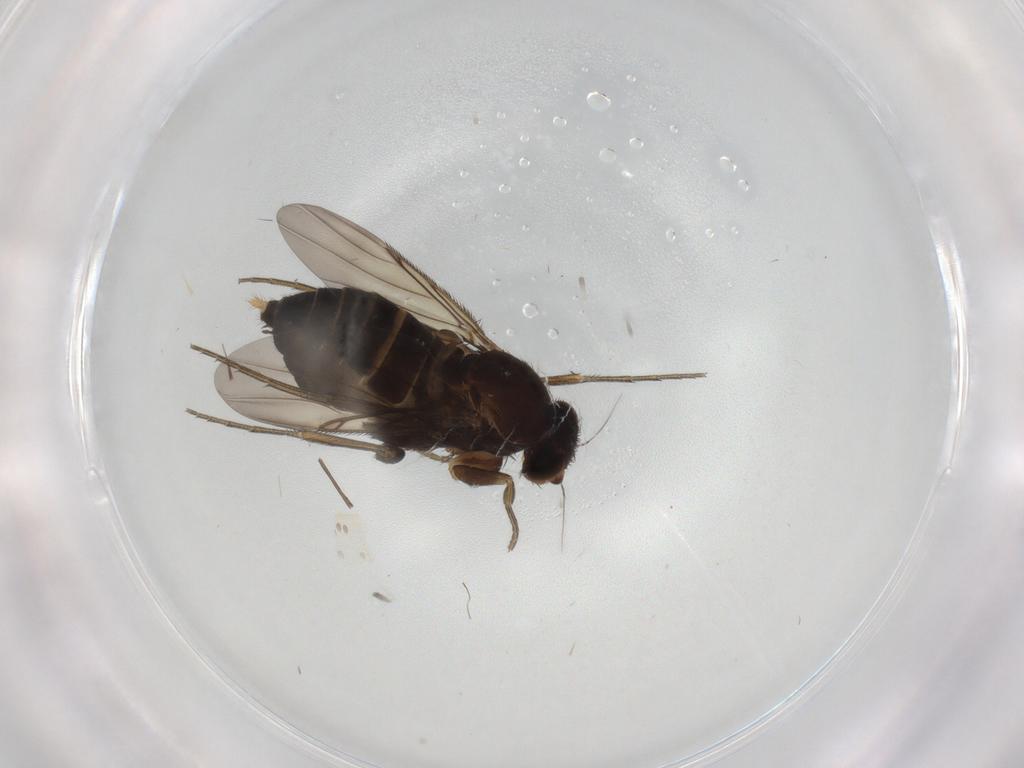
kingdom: Animalia
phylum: Arthropoda
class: Insecta
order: Diptera
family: Phoridae
